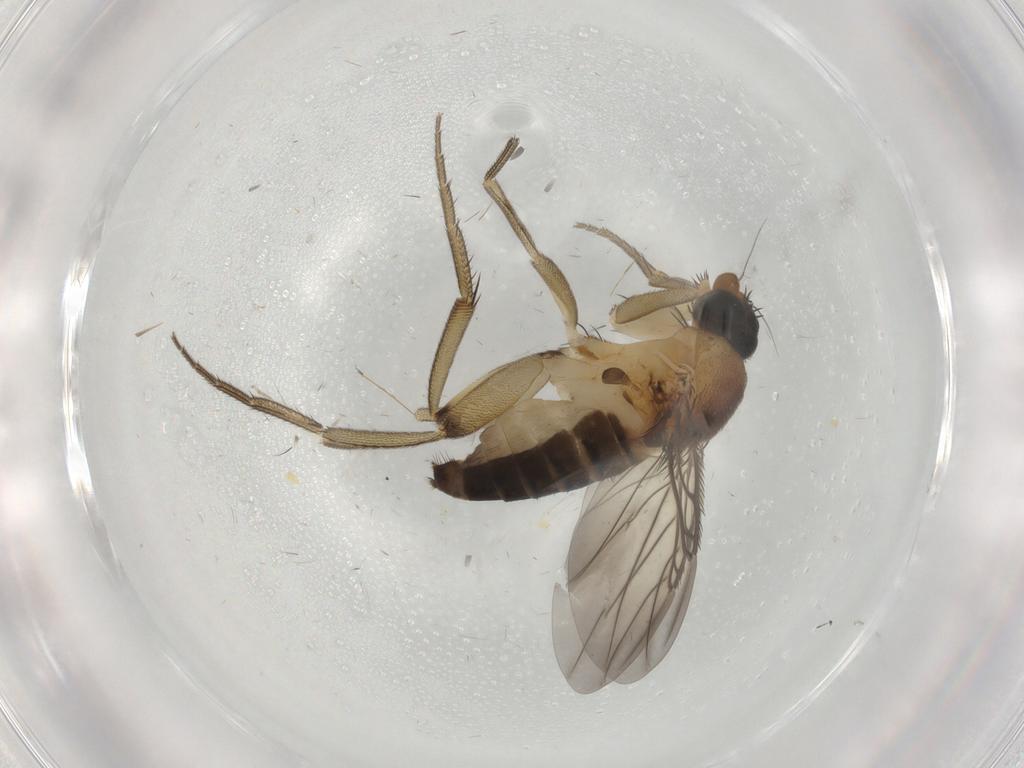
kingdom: Animalia
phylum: Arthropoda
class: Insecta
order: Diptera
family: Phoridae
